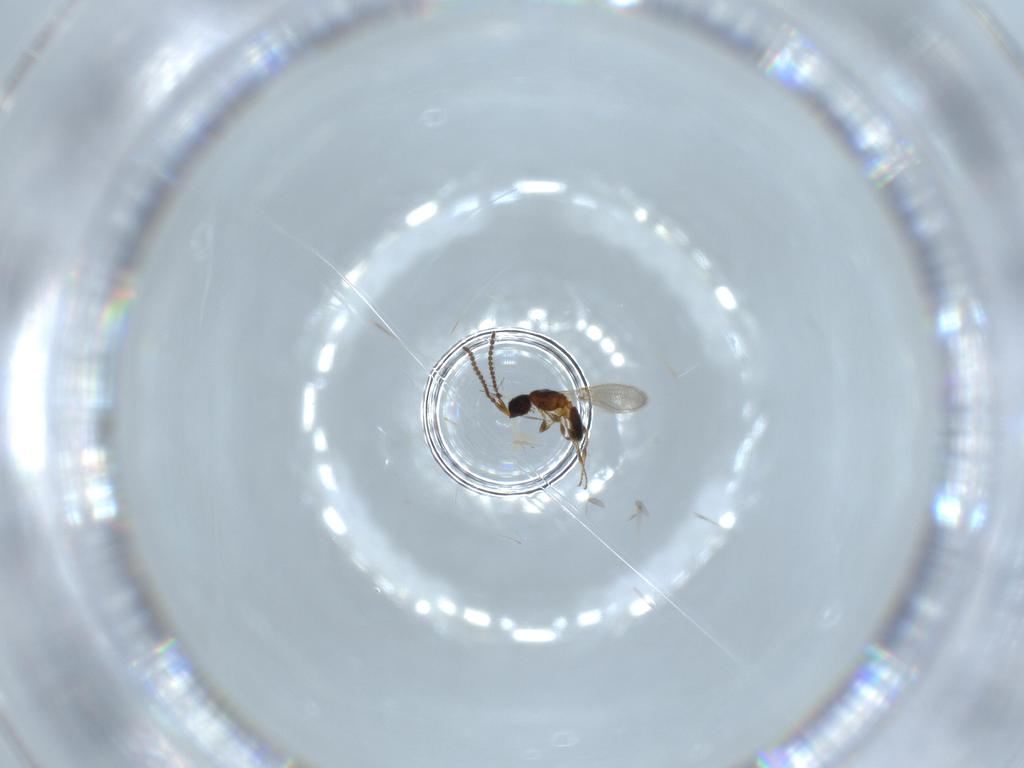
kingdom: Animalia
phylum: Arthropoda
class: Insecta
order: Hymenoptera
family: Diapriidae
